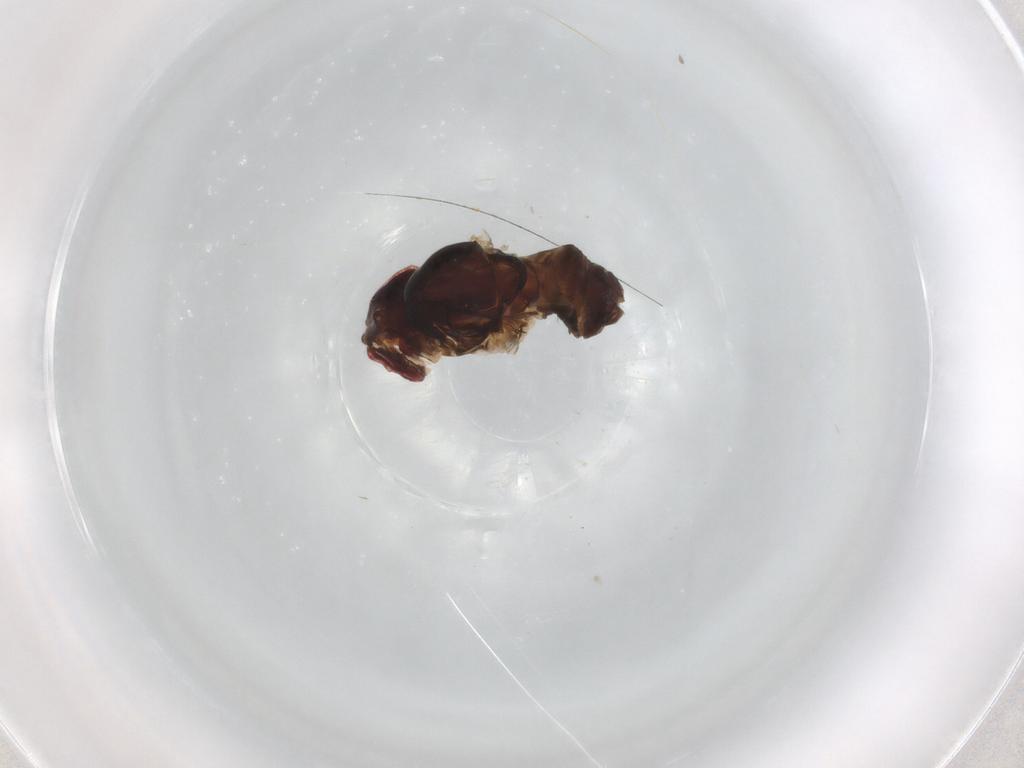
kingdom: Animalia
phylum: Arthropoda
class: Insecta
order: Diptera
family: Drosophilidae
